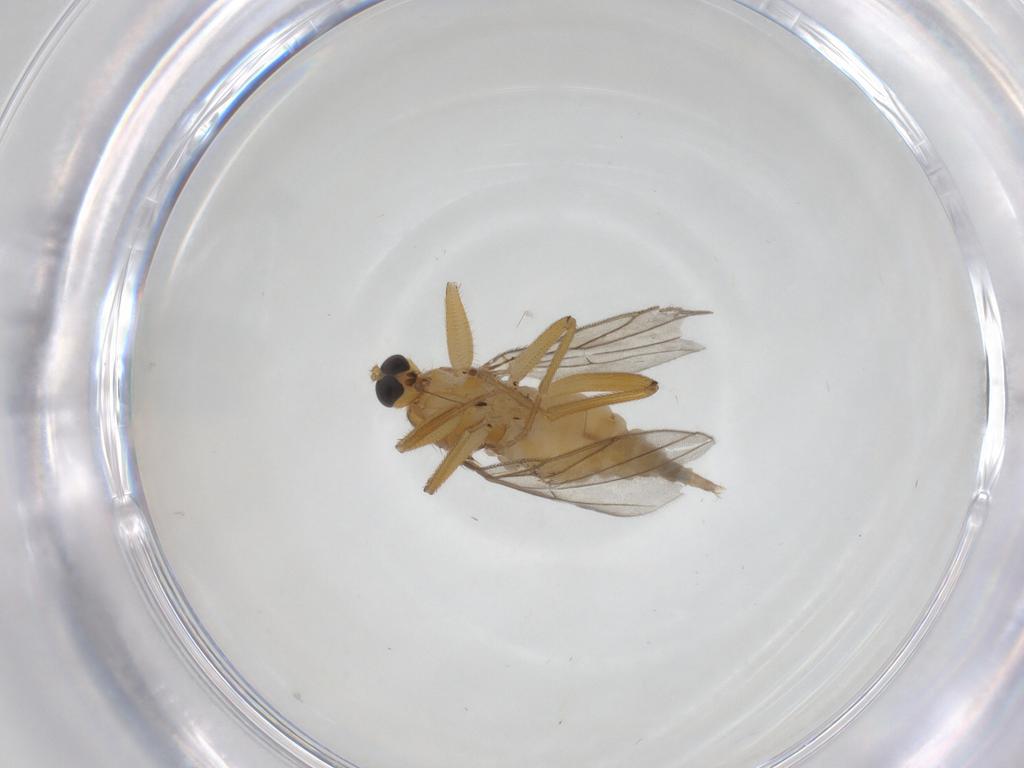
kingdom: Animalia
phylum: Arthropoda
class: Insecta
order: Diptera
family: Hybotidae
